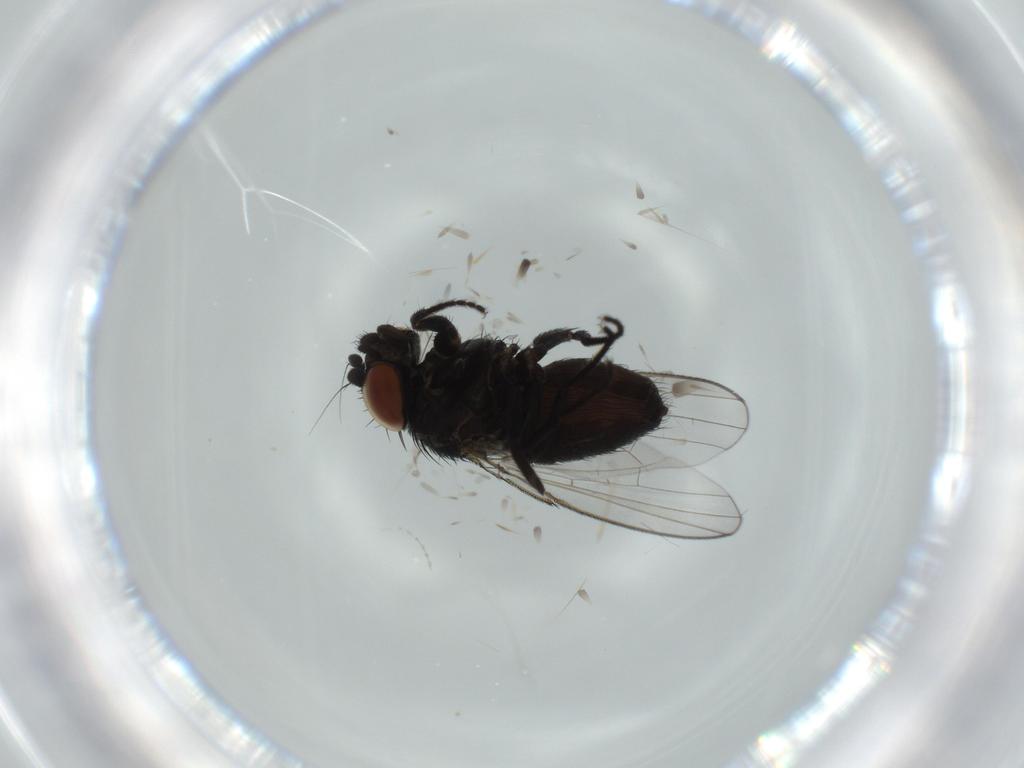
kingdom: Animalia
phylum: Arthropoda
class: Insecta
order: Diptera
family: Milichiidae
